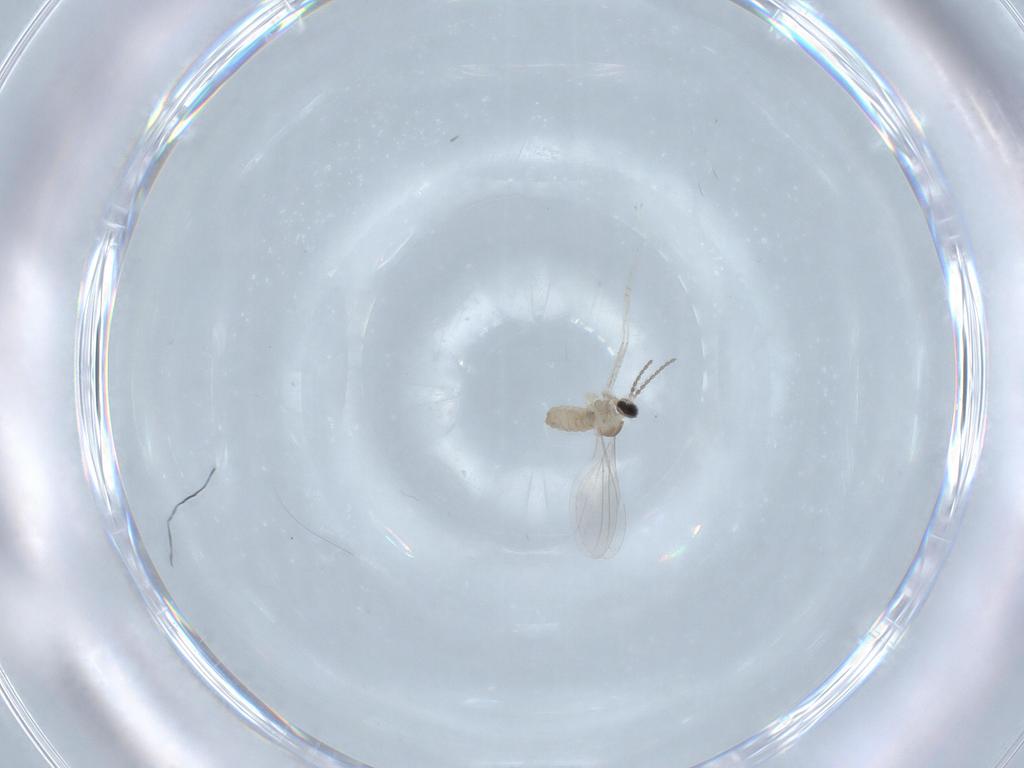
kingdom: Animalia
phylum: Arthropoda
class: Insecta
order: Diptera
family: Cecidomyiidae
